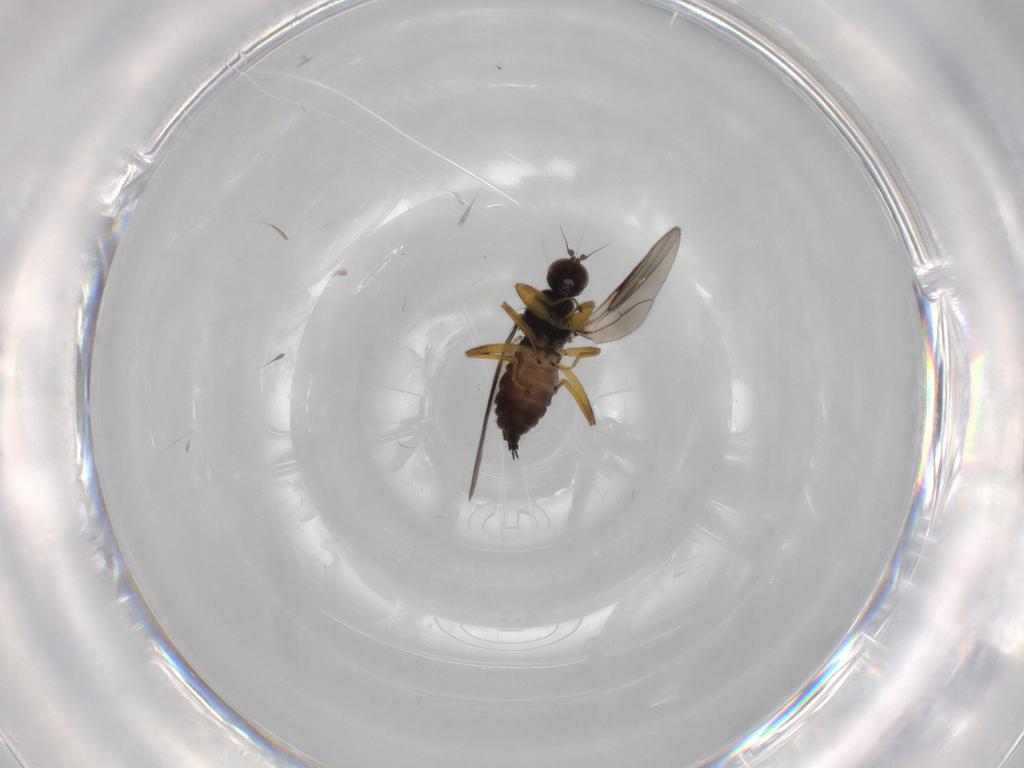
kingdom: Animalia
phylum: Arthropoda
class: Insecta
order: Diptera
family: Hybotidae
